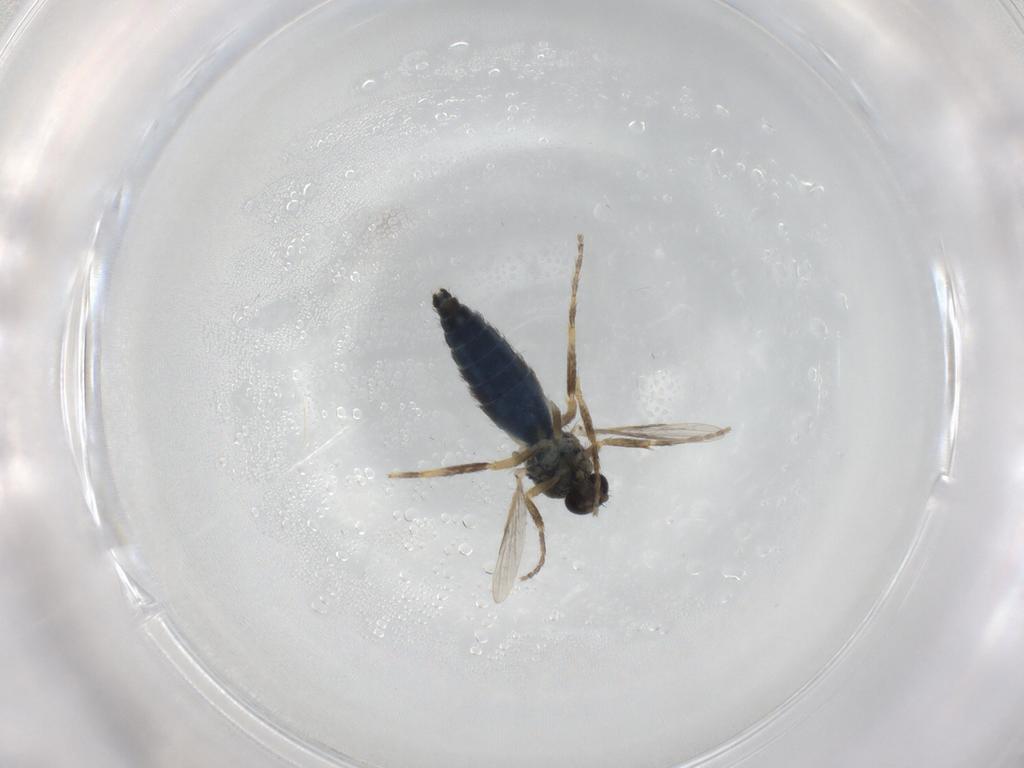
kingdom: Animalia
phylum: Arthropoda
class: Insecta
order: Diptera
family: Ceratopogonidae
